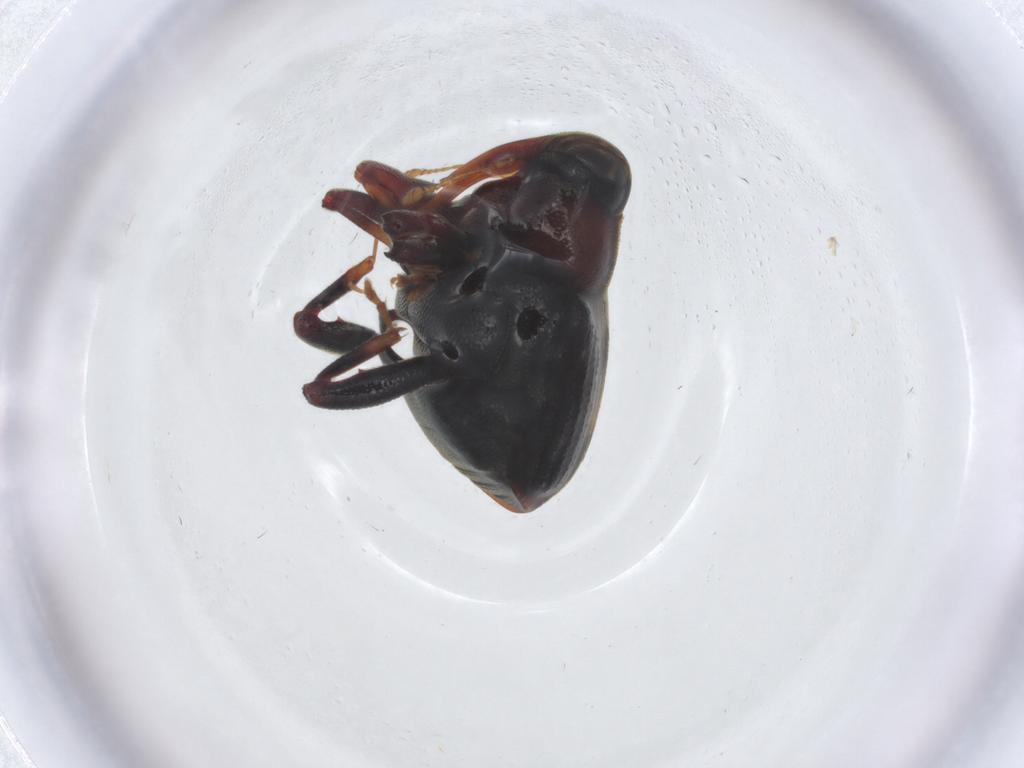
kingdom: Animalia
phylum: Arthropoda
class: Insecta
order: Coleoptera
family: Curculionidae
